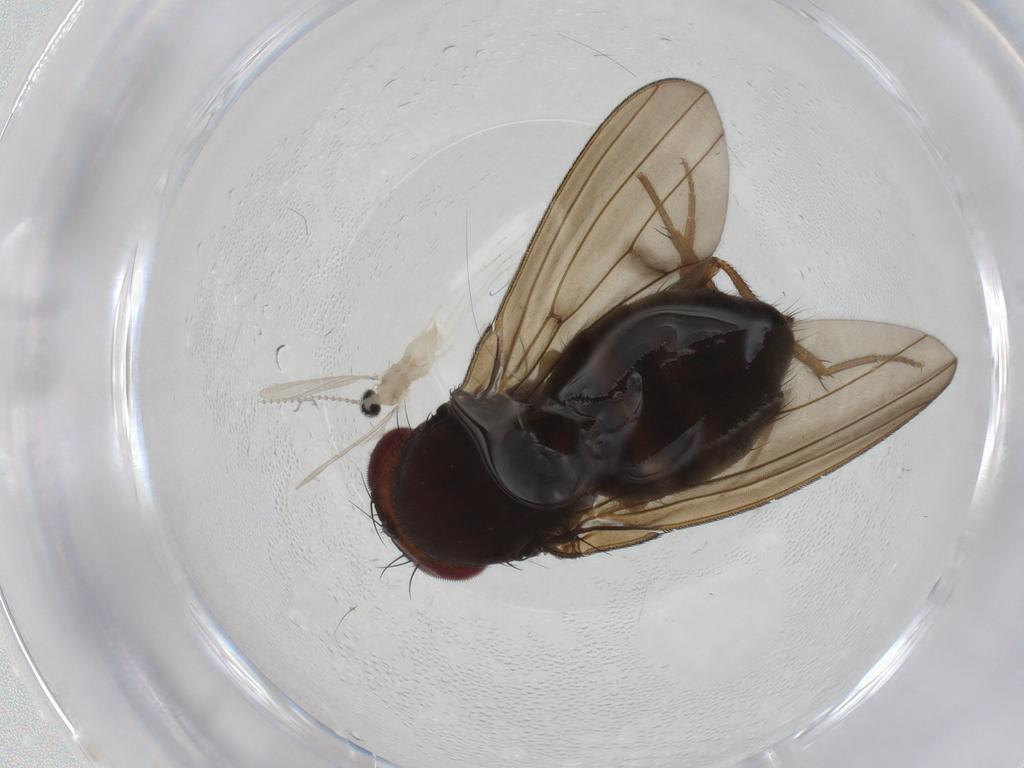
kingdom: Animalia
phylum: Arthropoda
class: Insecta
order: Diptera
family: Drosophilidae
